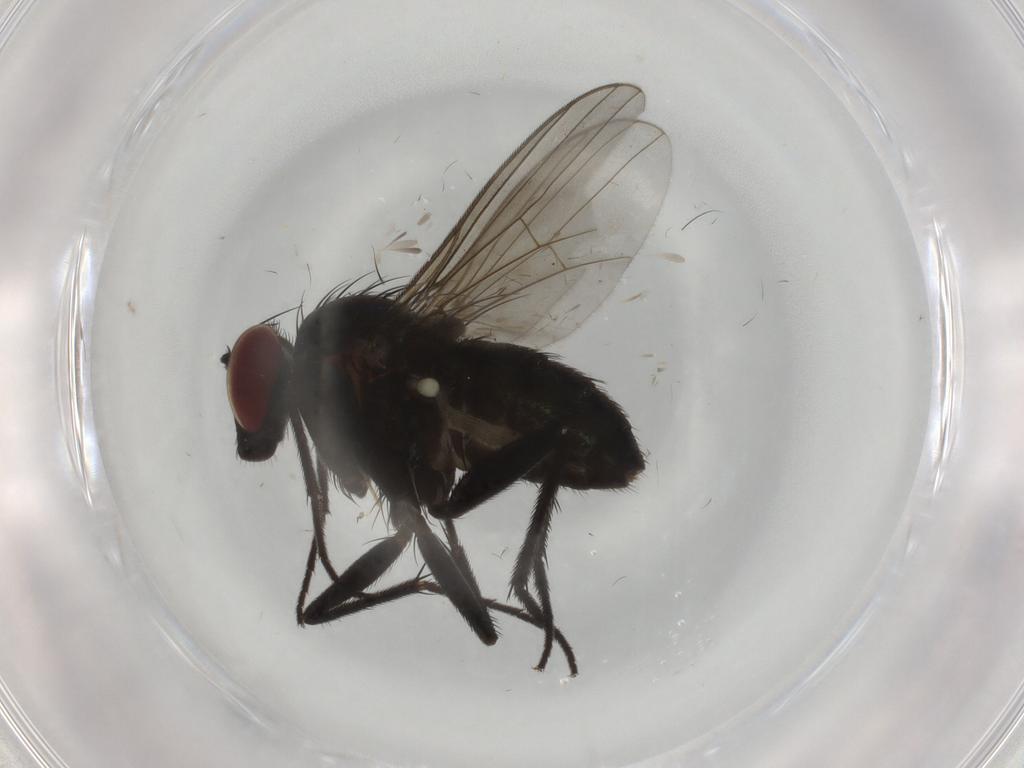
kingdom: Animalia
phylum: Arthropoda
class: Insecta
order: Diptera
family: Dolichopodidae
